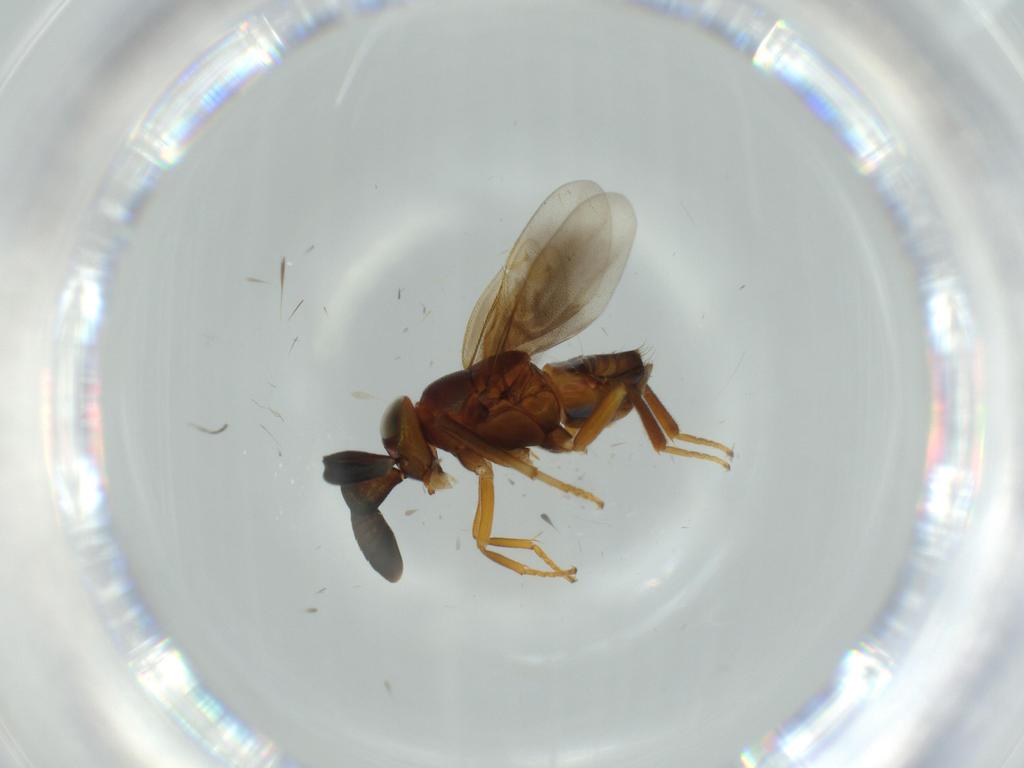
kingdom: Animalia
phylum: Arthropoda
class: Insecta
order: Hymenoptera
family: Encyrtidae
